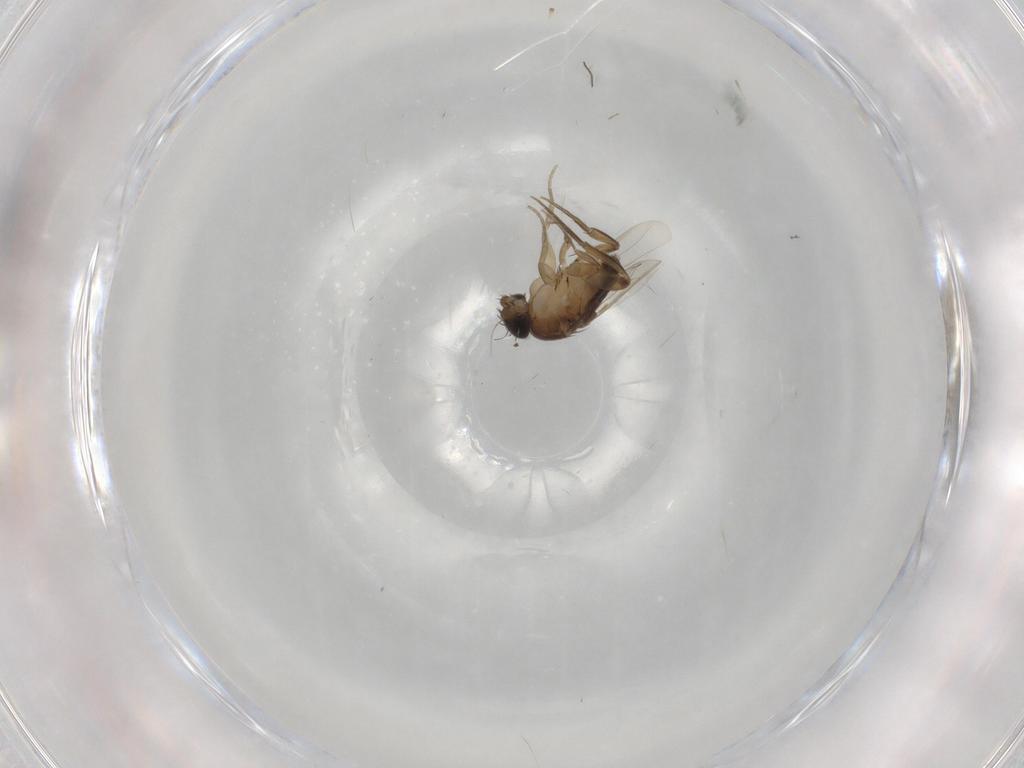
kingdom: Animalia
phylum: Arthropoda
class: Insecta
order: Diptera
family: Phoridae
